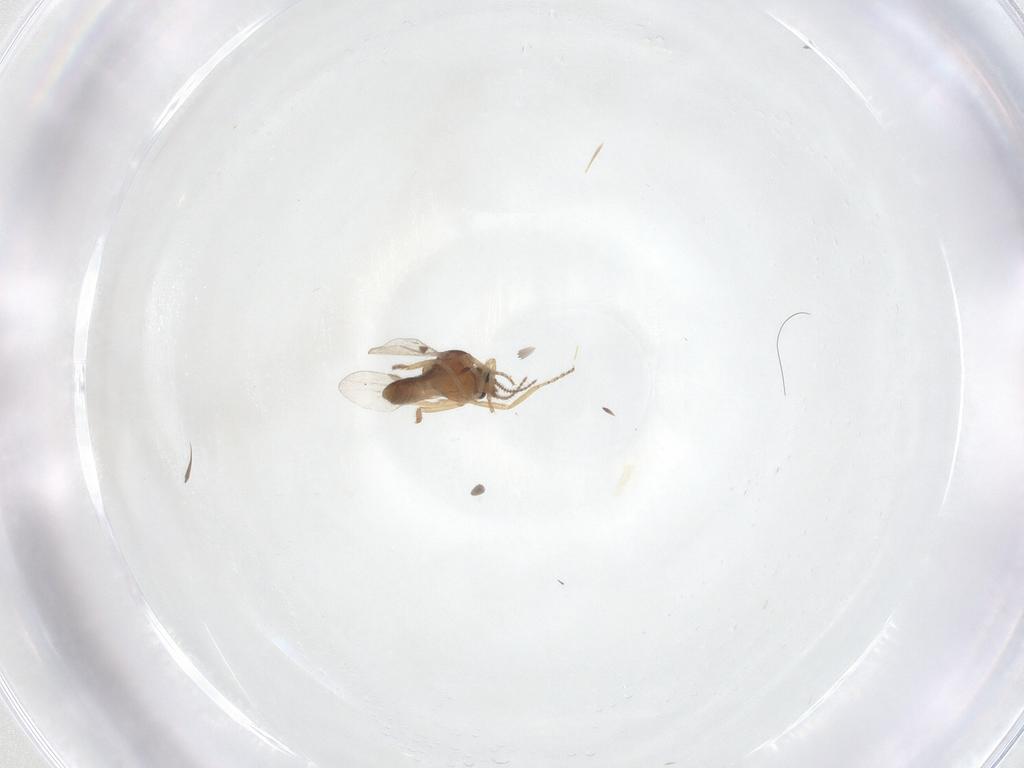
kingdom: Animalia
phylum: Arthropoda
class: Insecta
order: Diptera
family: Ceratopogonidae
